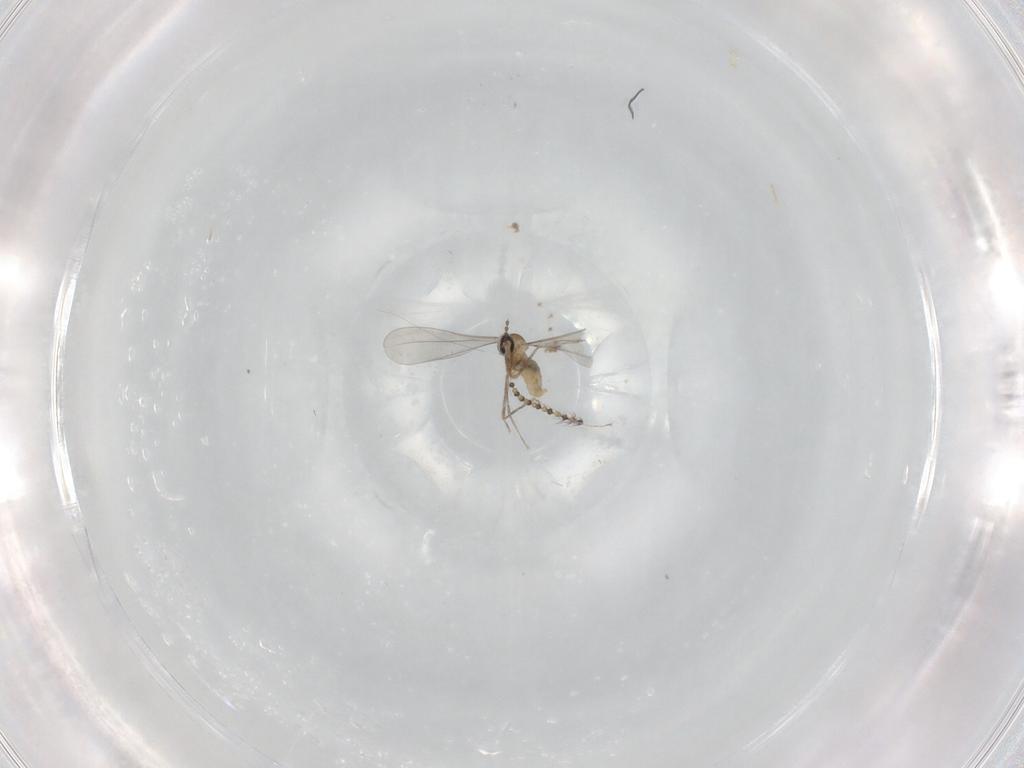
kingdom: Animalia
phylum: Arthropoda
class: Insecta
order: Diptera
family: Cecidomyiidae
